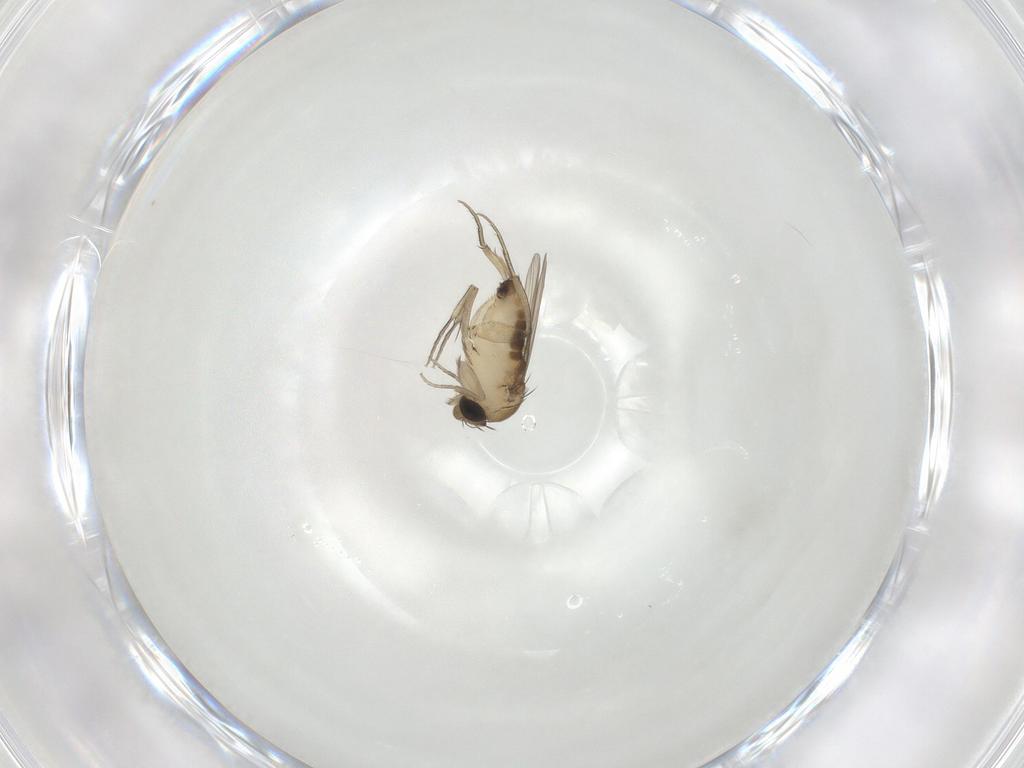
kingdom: Animalia
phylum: Arthropoda
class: Insecta
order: Diptera
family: Phoridae
